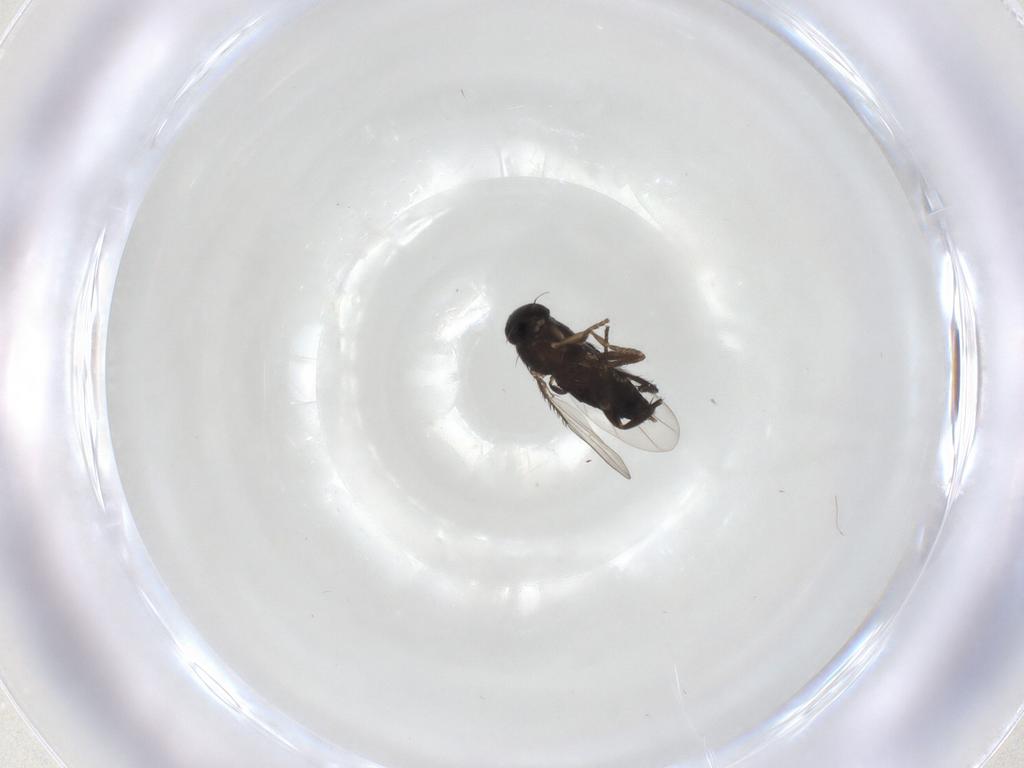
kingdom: Animalia
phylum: Arthropoda
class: Insecta
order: Diptera
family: Phoridae
